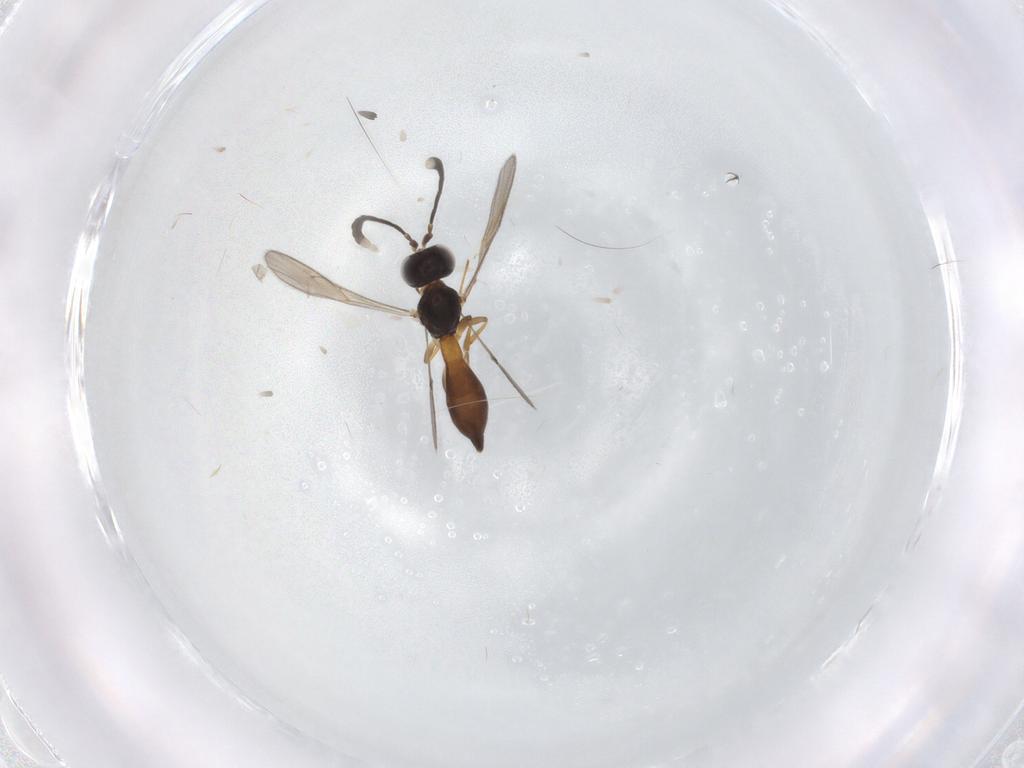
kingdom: Animalia
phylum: Arthropoda
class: Insecta
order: Hymenoptera
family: Scelionidae
